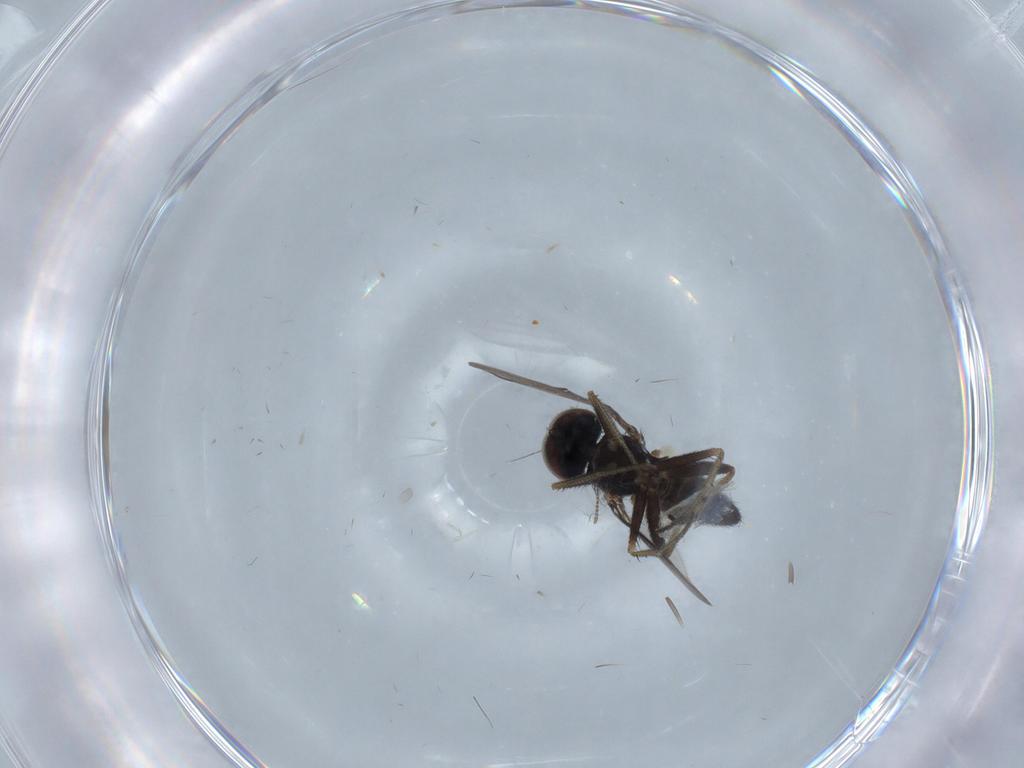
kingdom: Animalia
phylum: Arthropoda
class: Insecta
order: Diptera
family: Dolichopodidae
